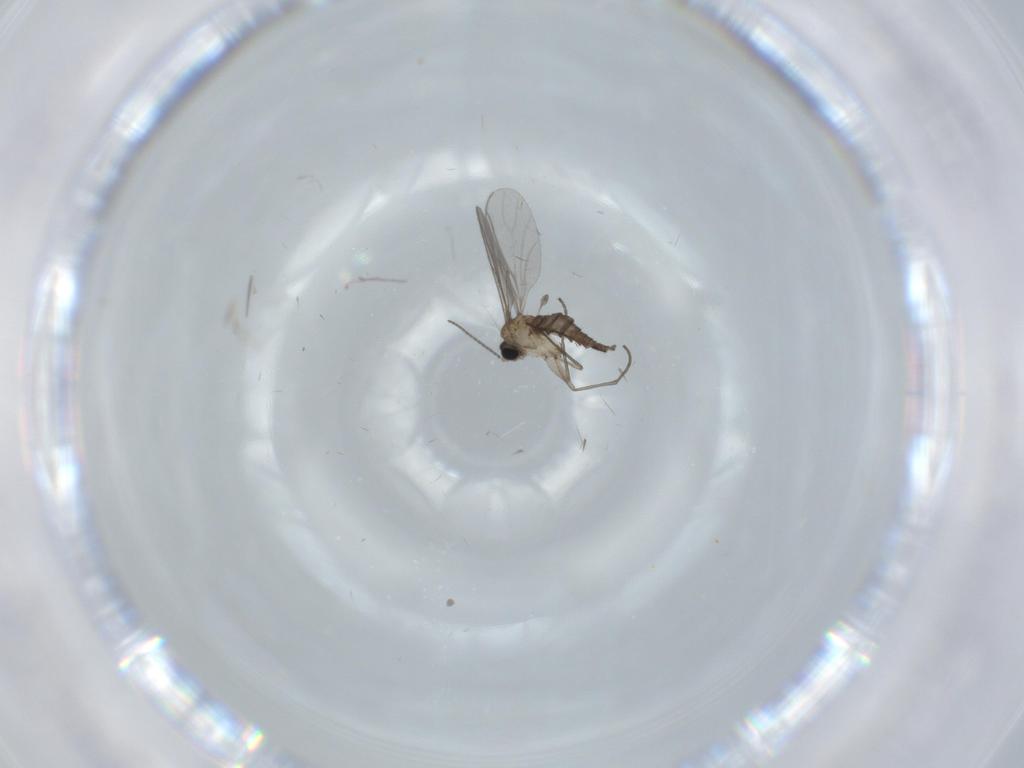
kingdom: Animalia
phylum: Arthropoda
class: Insecta
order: Diptera
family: Sciaridae
